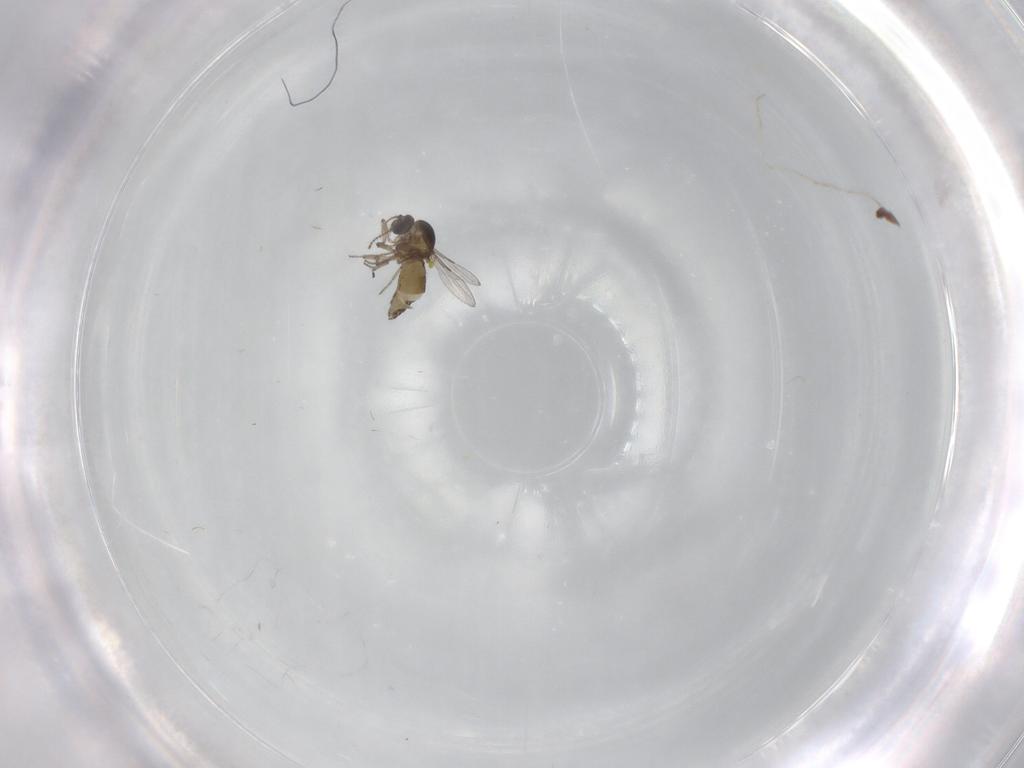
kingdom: Animalia
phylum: Arthropoda
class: Insecta
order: Diptera
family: Ceratopogonidae
